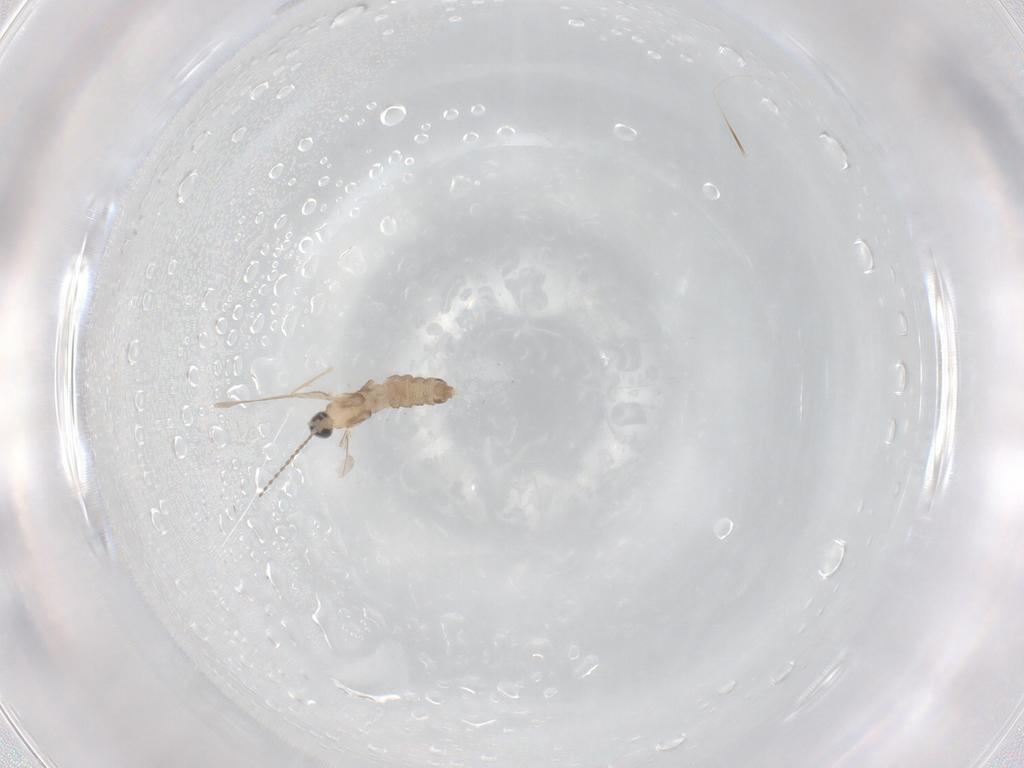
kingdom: Animalia
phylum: Arthropoda
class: Insecta
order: Diptera
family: Cecidomyiidae
